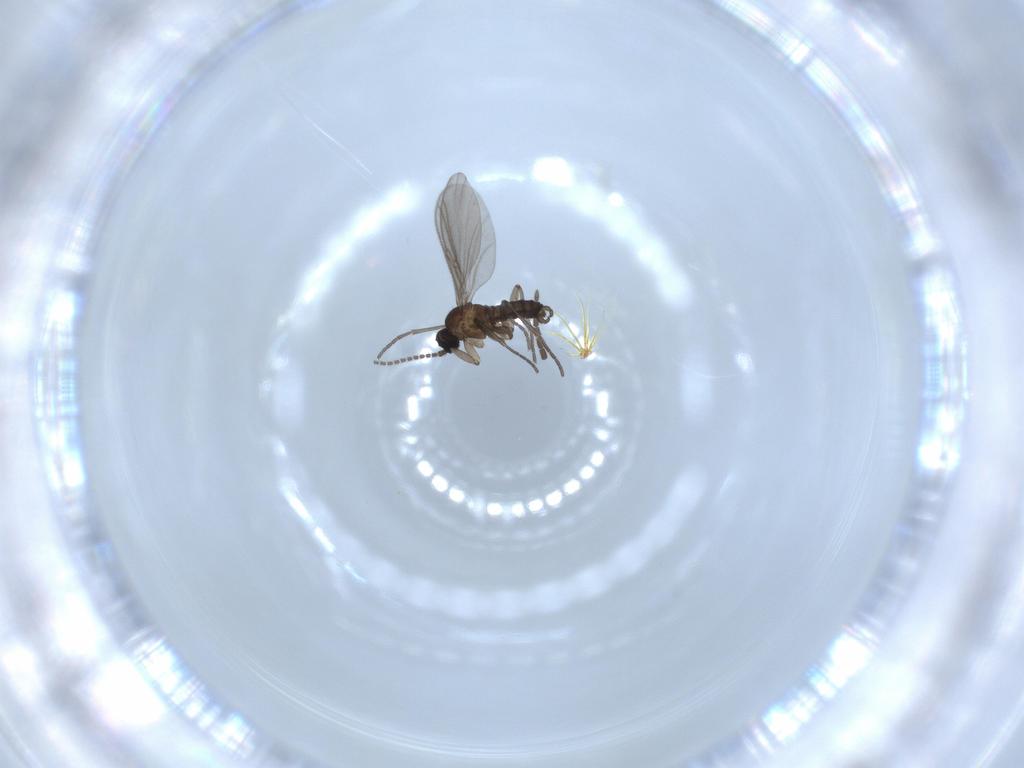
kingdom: Animalia
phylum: Arthropoda
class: Insecta
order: Diptera
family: Sciaridae
